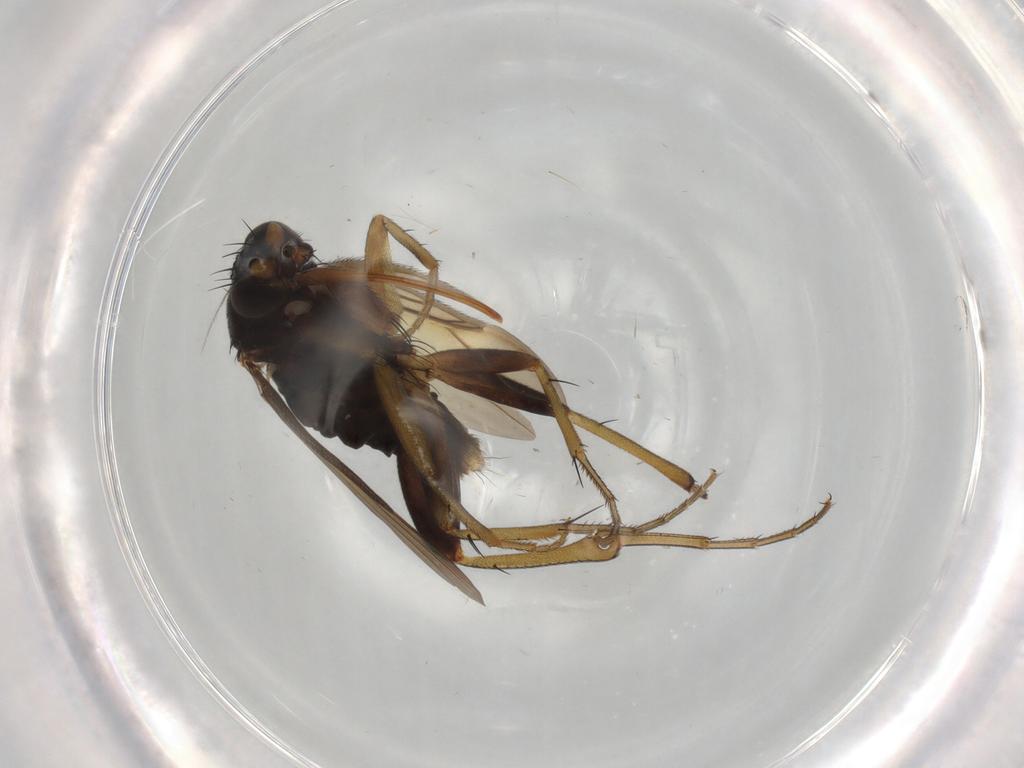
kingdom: Animalia
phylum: Arthropoda
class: Insecta
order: Diptera
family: Phoridae
